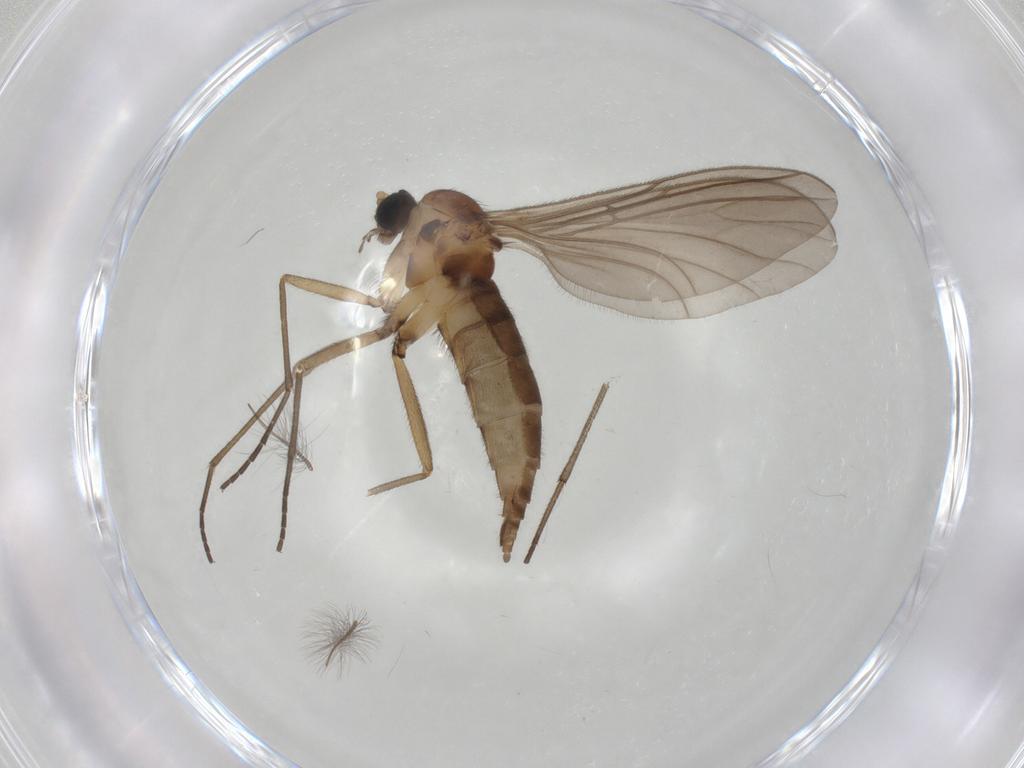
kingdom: Animalia
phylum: Arthropoda
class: Insecta
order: Diptera
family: Sciaridae
